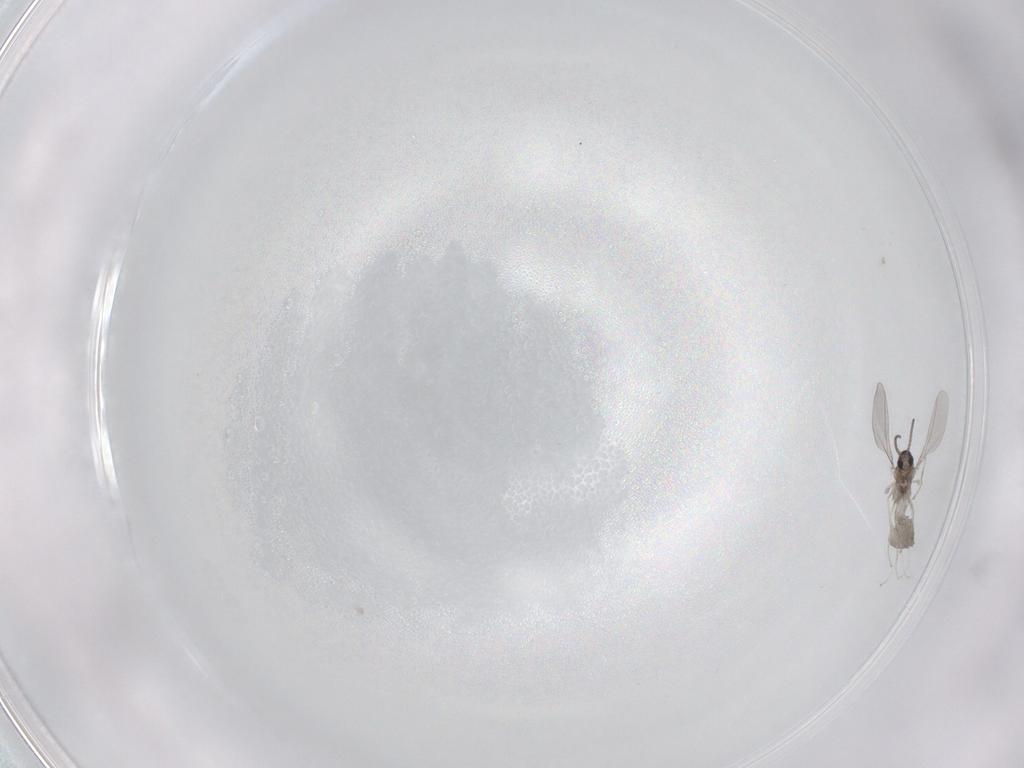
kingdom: Animalia
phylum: Arthropoda
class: Insecta
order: Diptera
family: Cecidomyiidae
